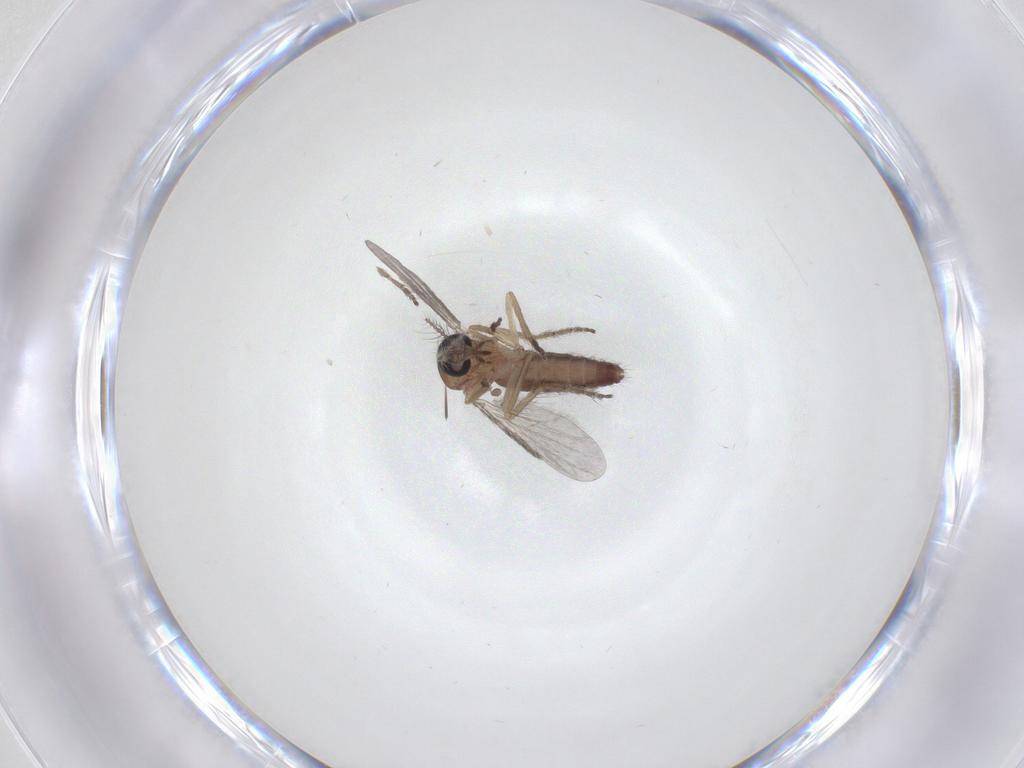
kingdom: Animalia
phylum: Arthropoda
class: Insecta
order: Diptera
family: Ceratopogonidae
